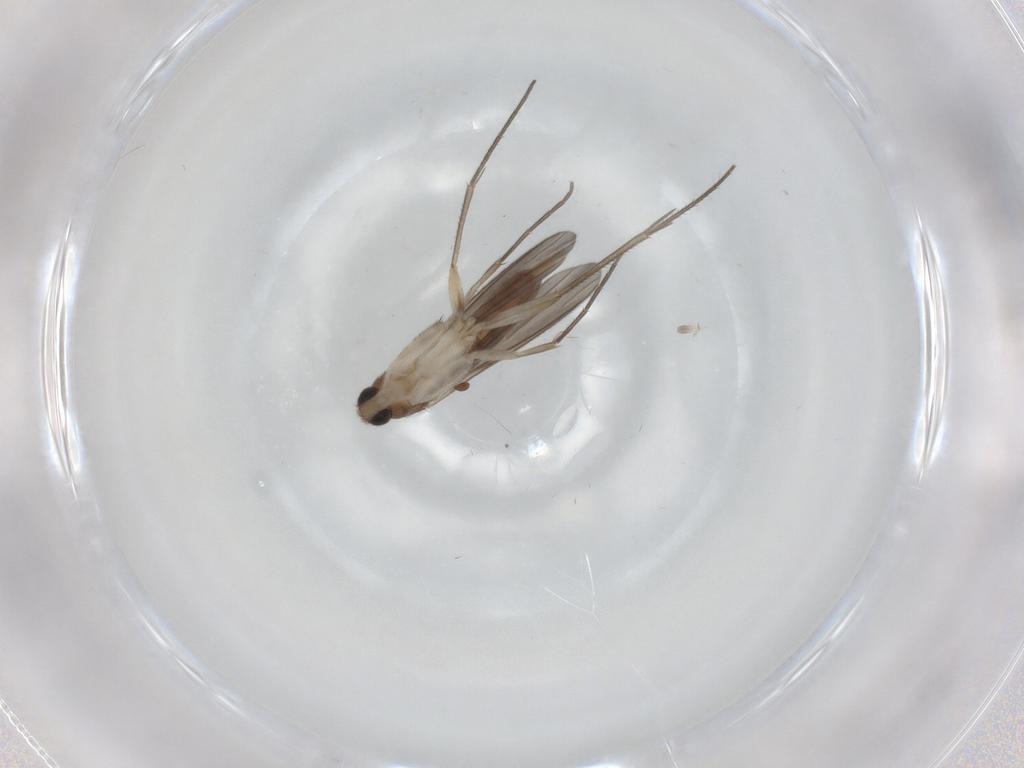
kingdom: Animalia
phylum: Arthropoda
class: Insecta
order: Diptera
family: Mycetophilidae
